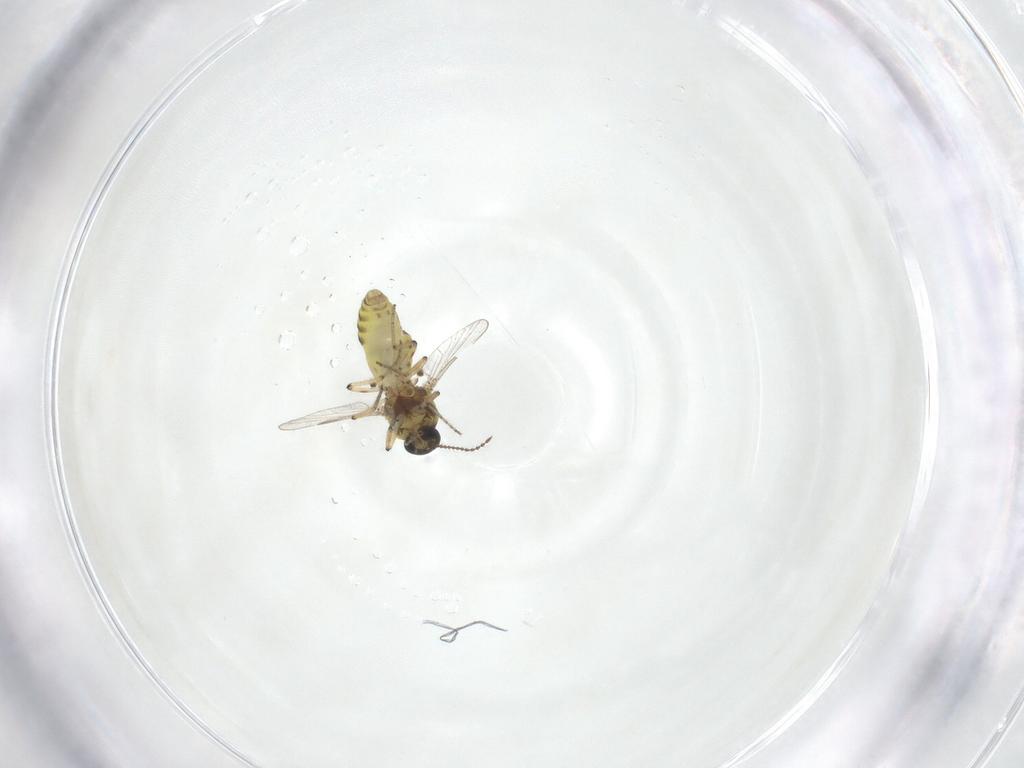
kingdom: Animalia
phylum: Arthropoda
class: Insecta
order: Diptera
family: Ceratopogonidae
